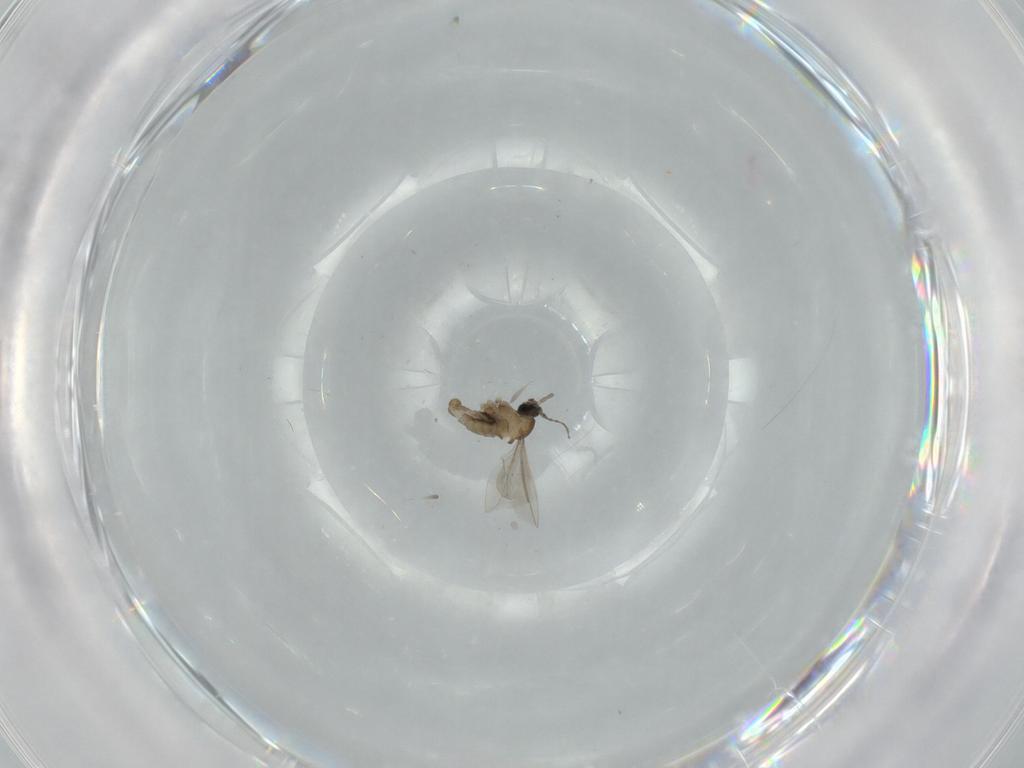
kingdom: Animalia
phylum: Arthropoda
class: Insecta
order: Diptera
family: Cecidomyiidae
